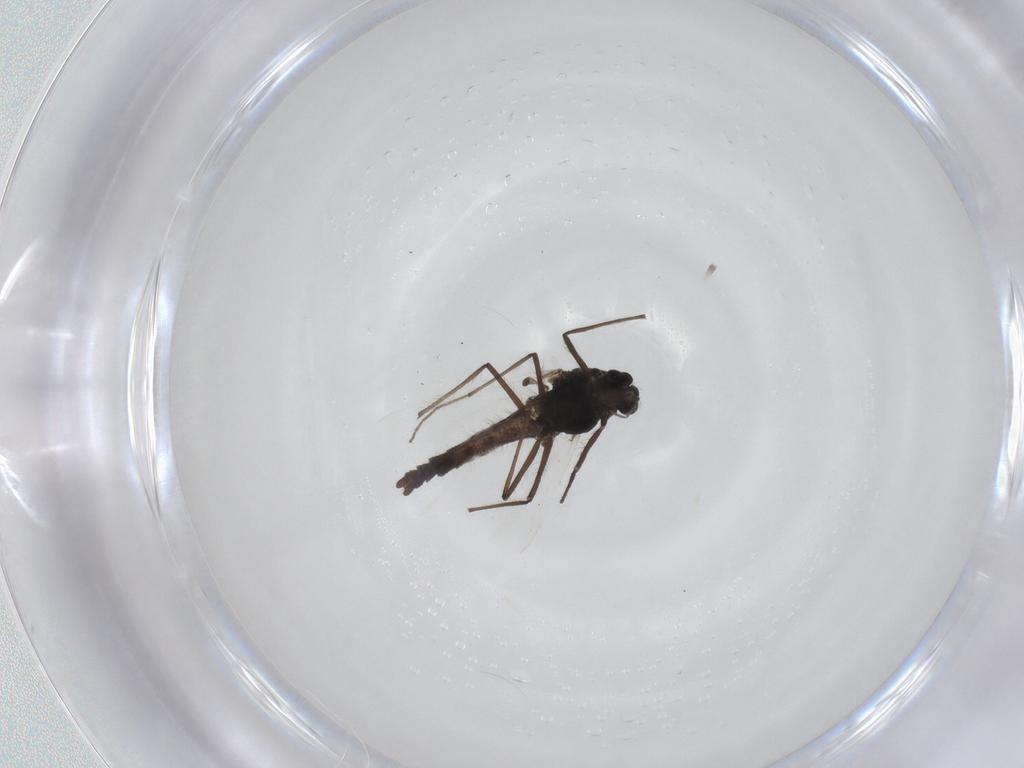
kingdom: Animalia
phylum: Arthropoda
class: Insecta
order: Diptera
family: Chironomidae
